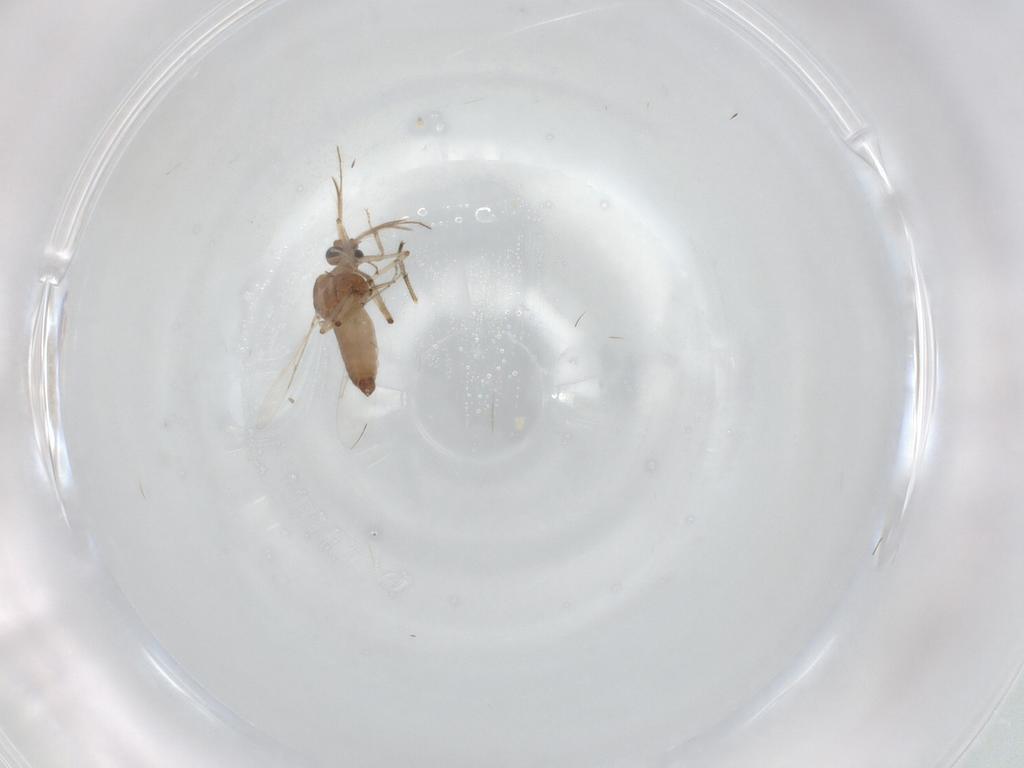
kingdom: Animalia
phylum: Arthropoda
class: Insecta
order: Diptera
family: Ceratopogonidae
